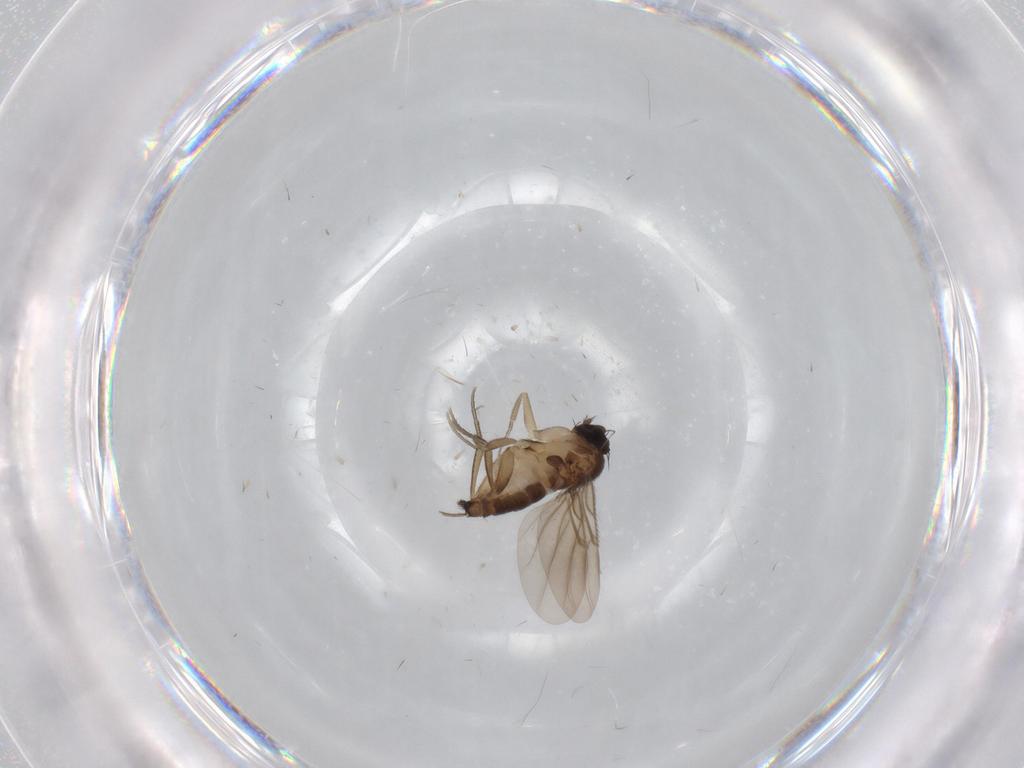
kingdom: Animalia
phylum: Arthropoda
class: Insecta
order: Diptera
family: Phoridae
